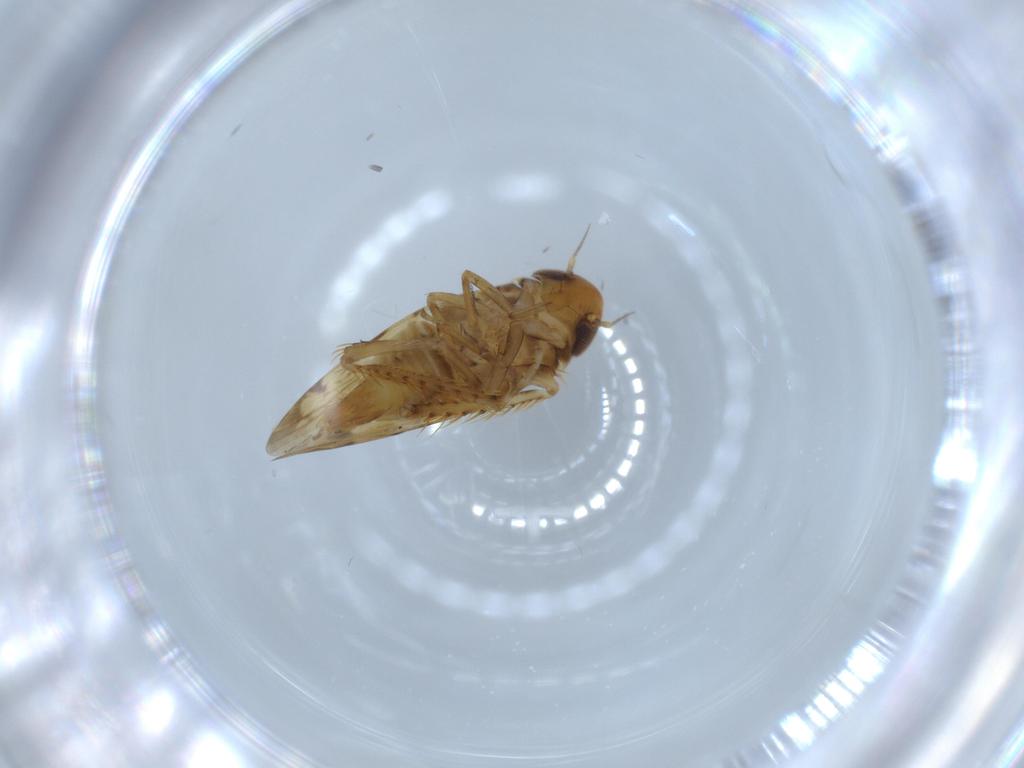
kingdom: Animalia
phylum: Arthropoda
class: Insecta
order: Hemiptera
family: Cicadellidae
